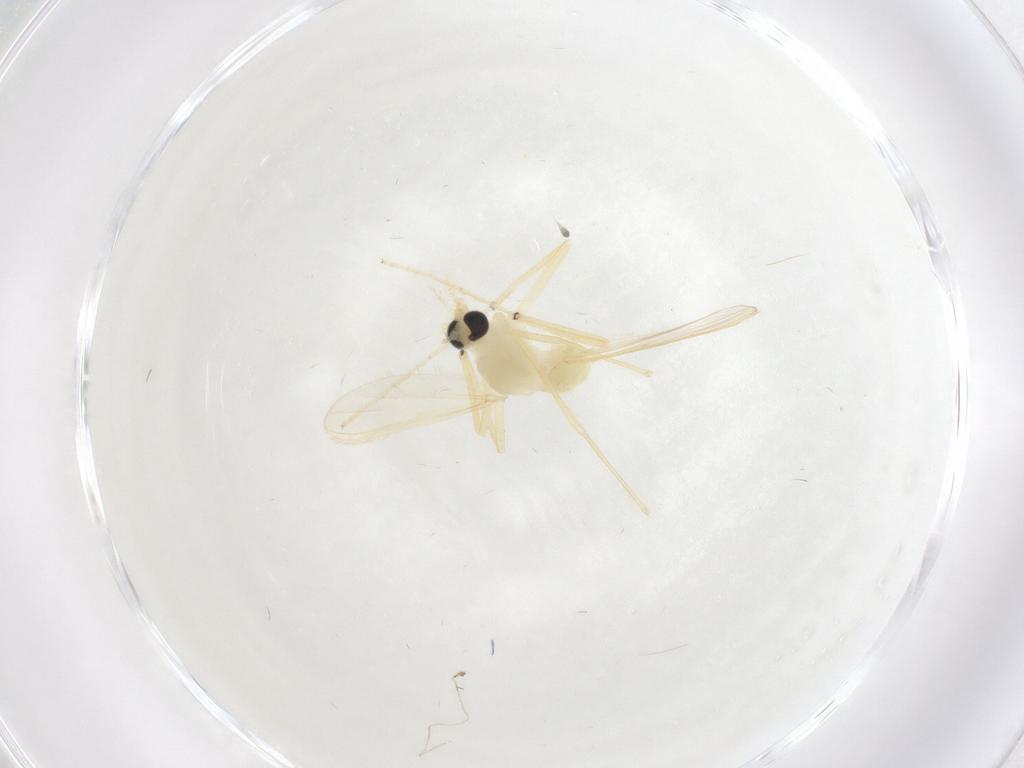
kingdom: Animalia
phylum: Arthropoda
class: Insecta
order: Diptera
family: Chironomidae
